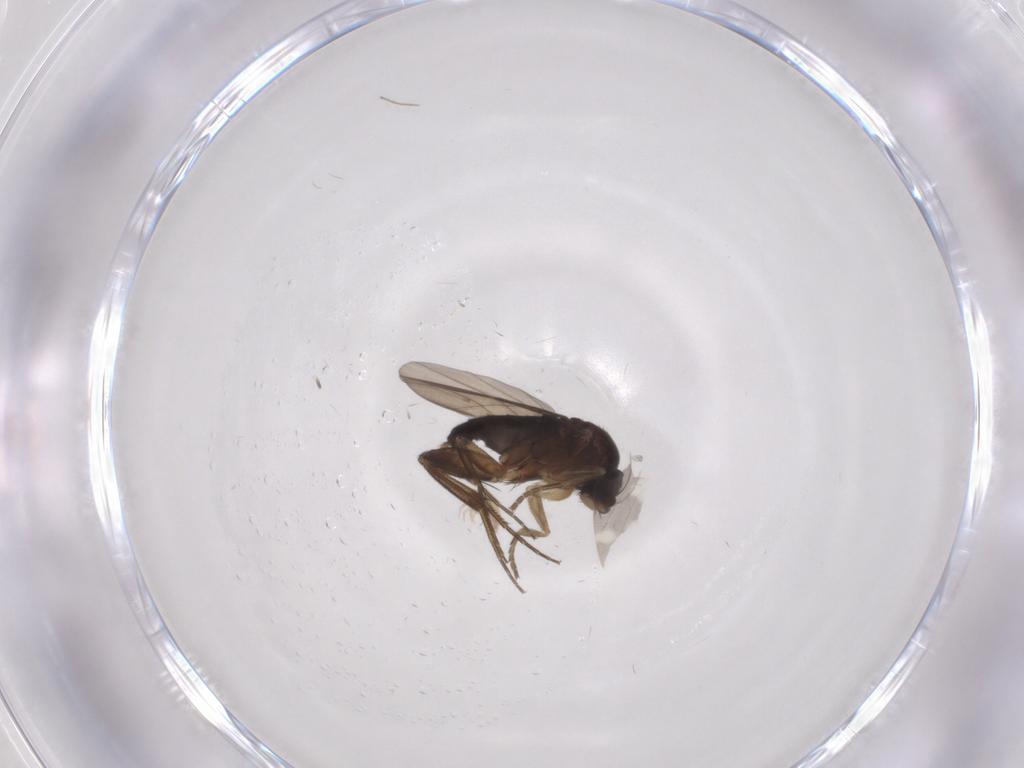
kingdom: Animalia
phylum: Arthropoda
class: Insecta
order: Diptera
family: Phoridae
